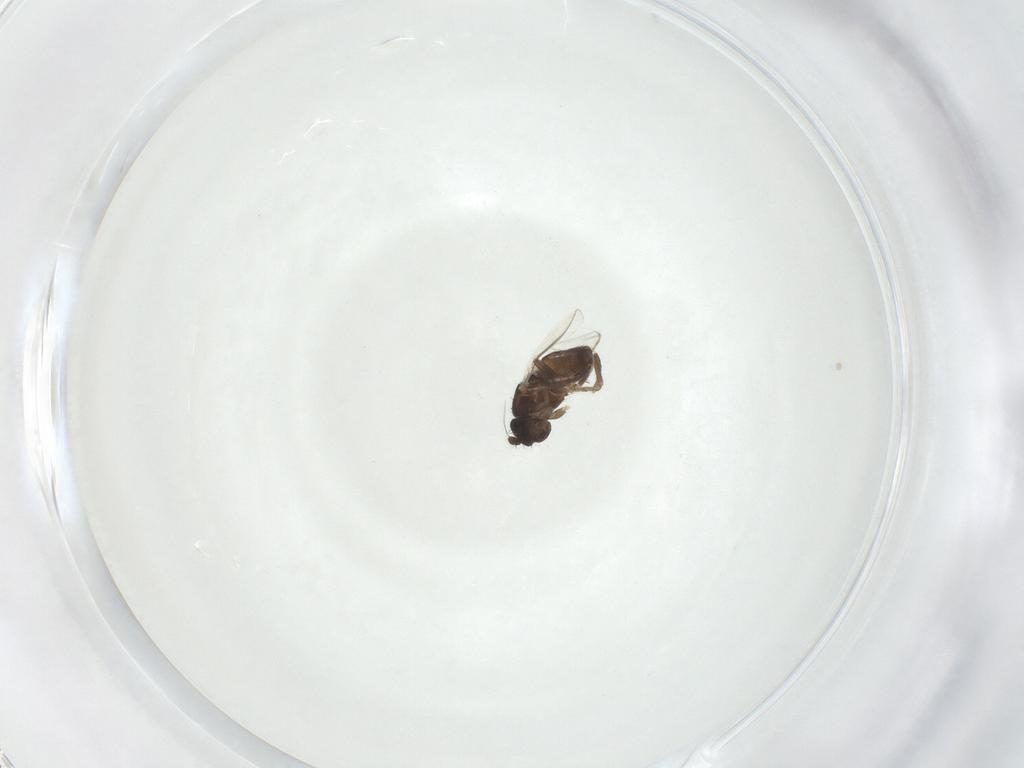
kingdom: Animalia
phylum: Arthropoda
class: Insecta
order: Diptera
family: Sphaeroceridae
